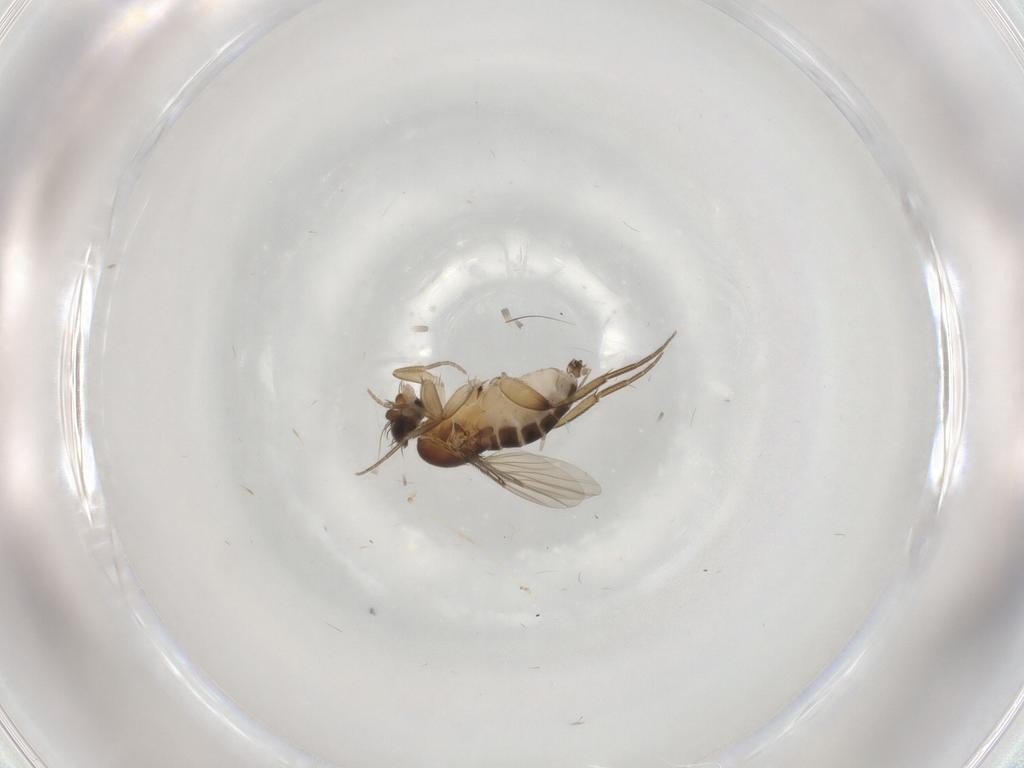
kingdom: Animalia
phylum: Arthropoda
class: Insecta
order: Diptera
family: Phoridae
